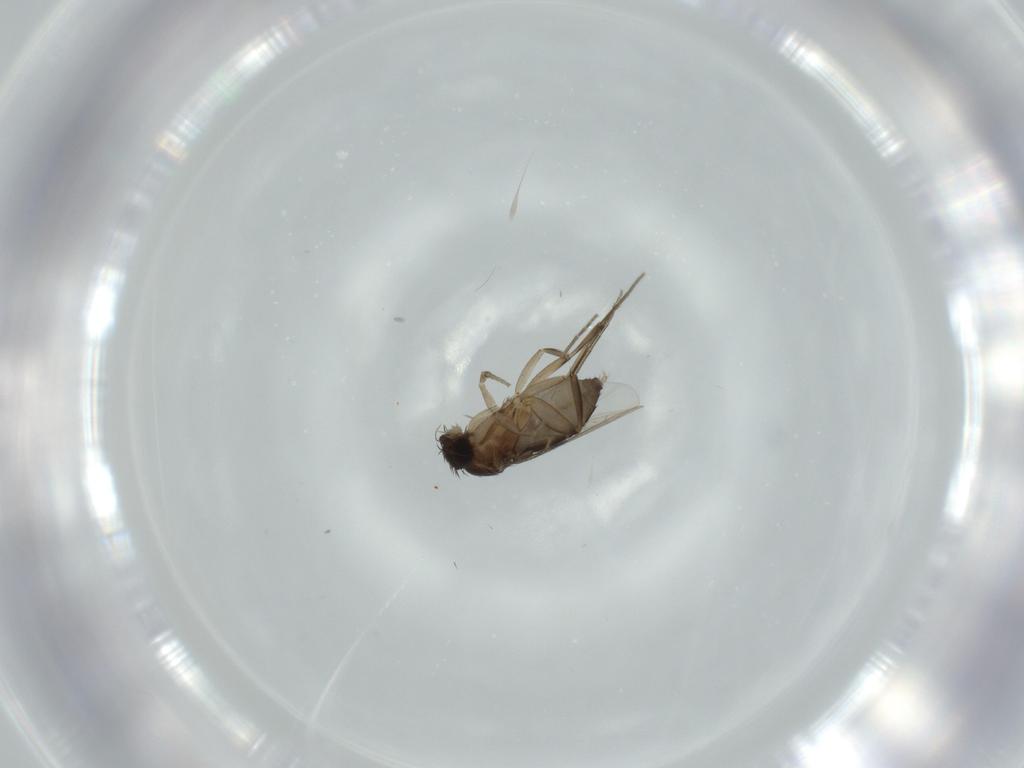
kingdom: Animalia
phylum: Arthropoda
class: Insecta
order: Diptera
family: Phoridae
